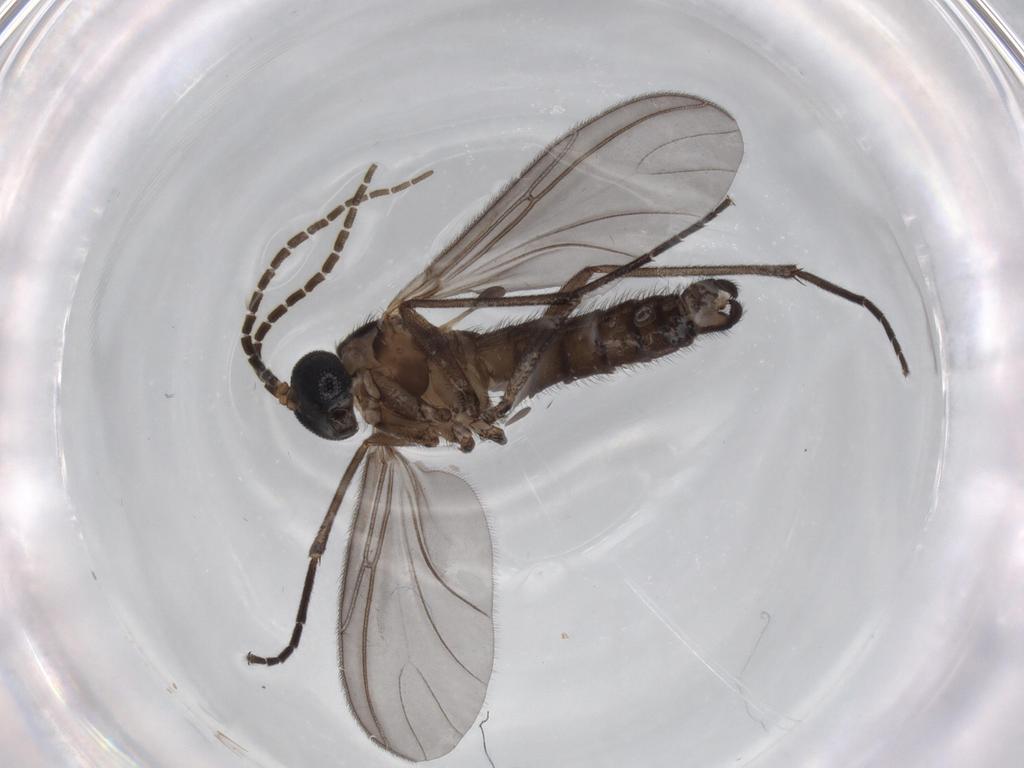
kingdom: Animalia
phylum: Arthropoda
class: Insecta
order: Diptera
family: Cecidomyiidae
